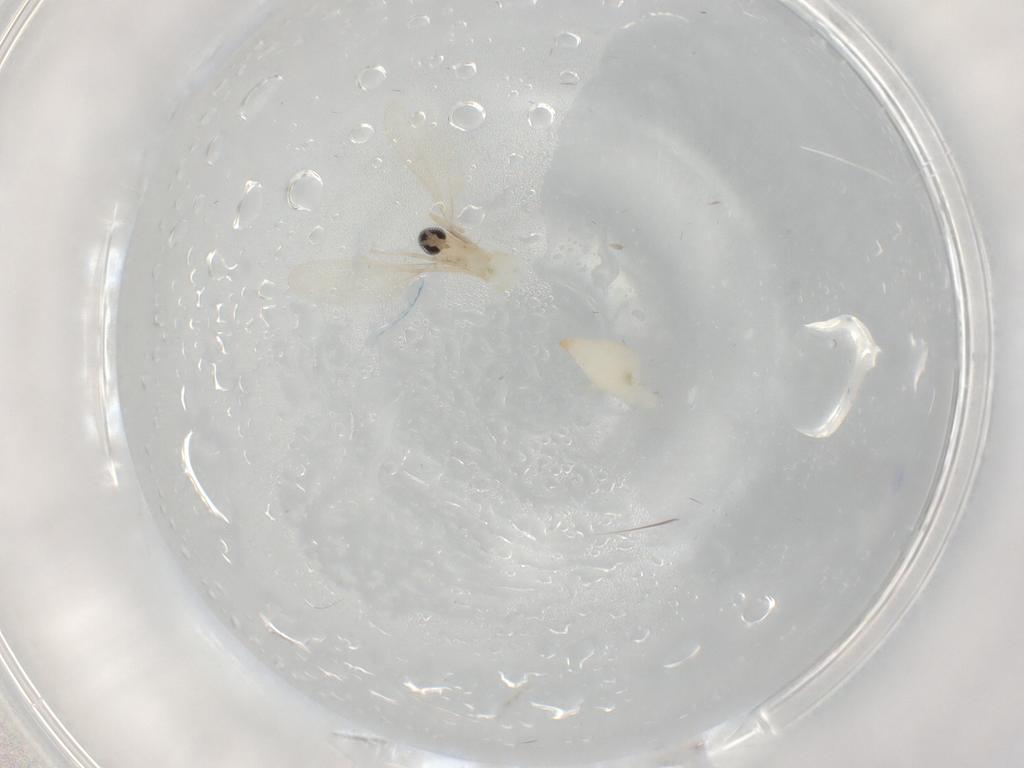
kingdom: Animalia
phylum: Arthropoda
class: Insecta
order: Diptera
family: Cecidomyiidae
